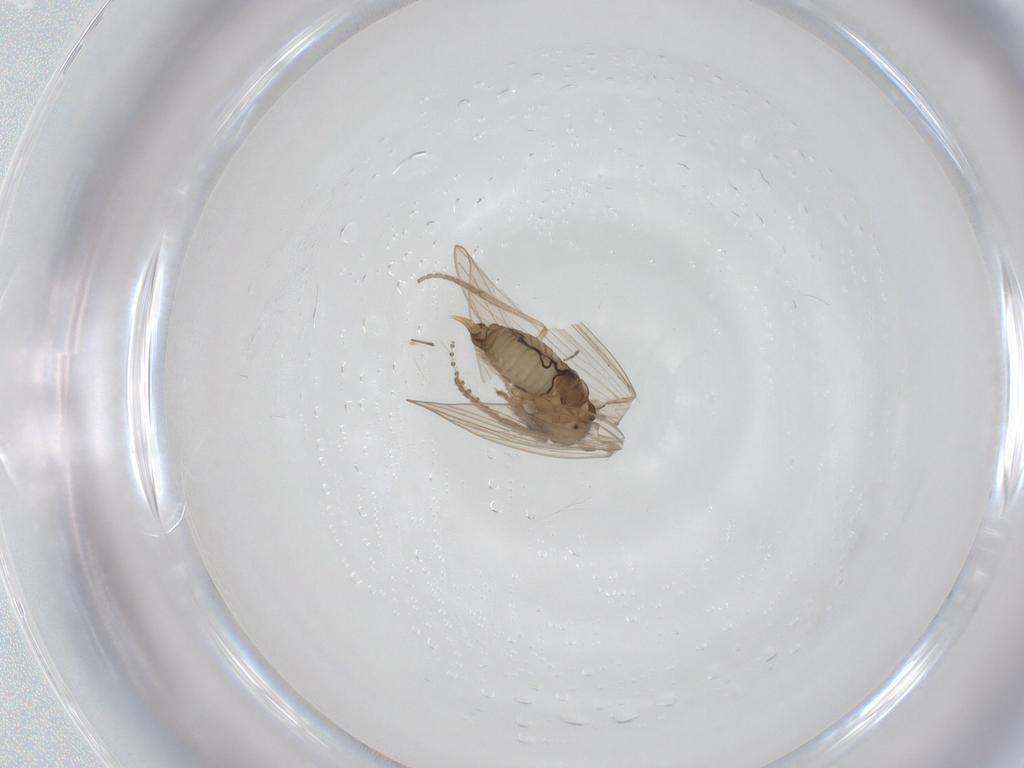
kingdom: Animalia
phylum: Arthropoda
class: Insecta
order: Diptera
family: Psychodidae
